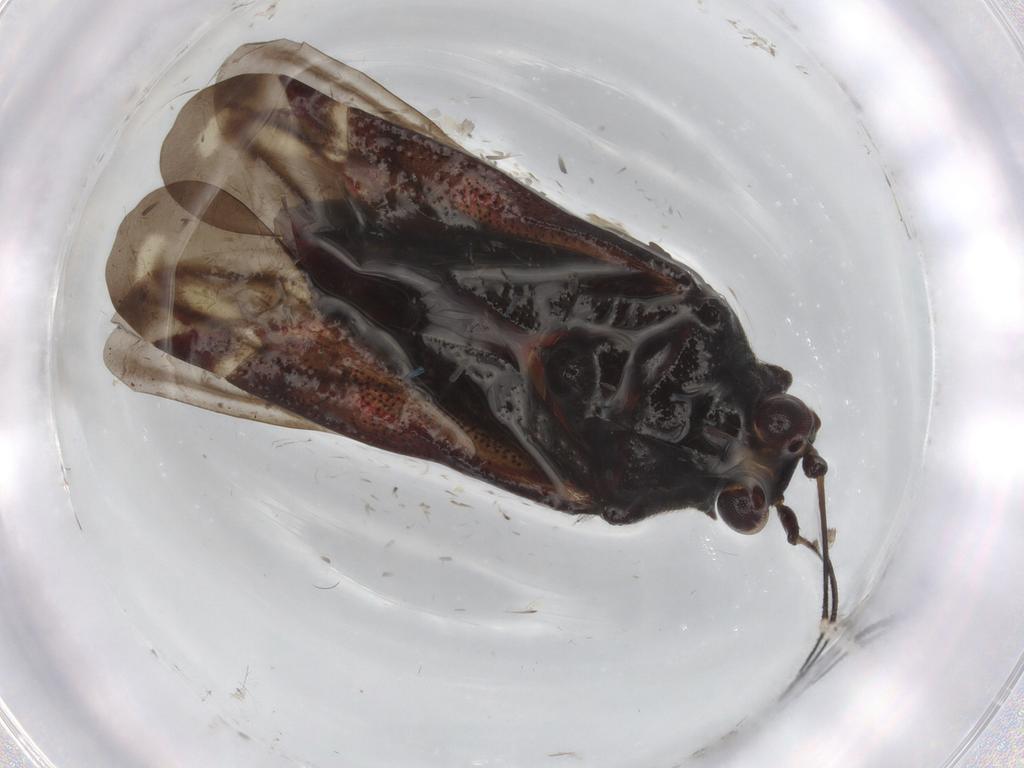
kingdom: Animalia
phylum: Arthropoda
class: Insecta
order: Hemiptera
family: Miridae
